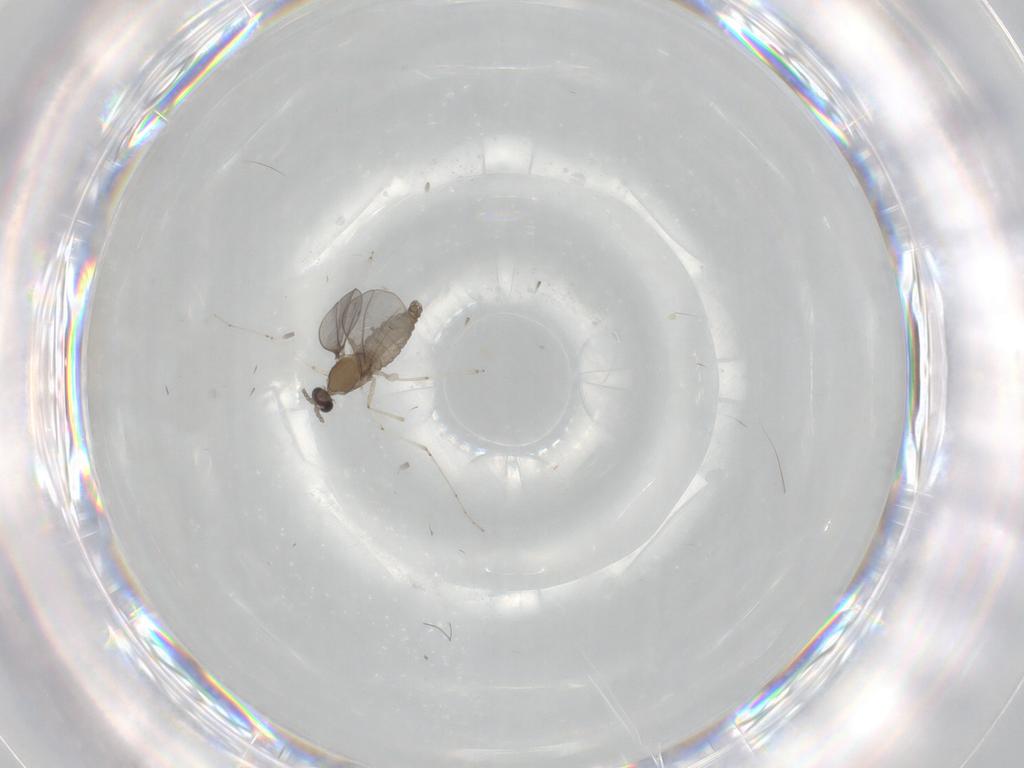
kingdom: Animalia
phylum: Arthropoda
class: Insecta
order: Diptera
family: Cecidomyiidae
